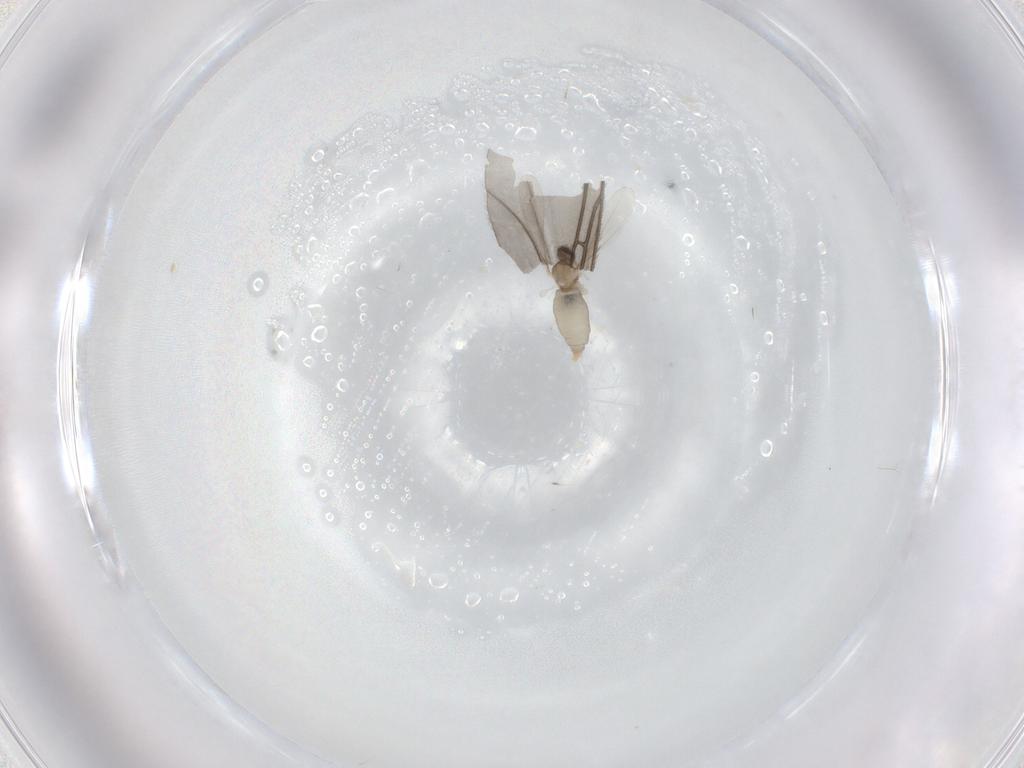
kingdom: Animalia
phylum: Arthropoda
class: Insecta
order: Diptera
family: Cecidomyiidae
